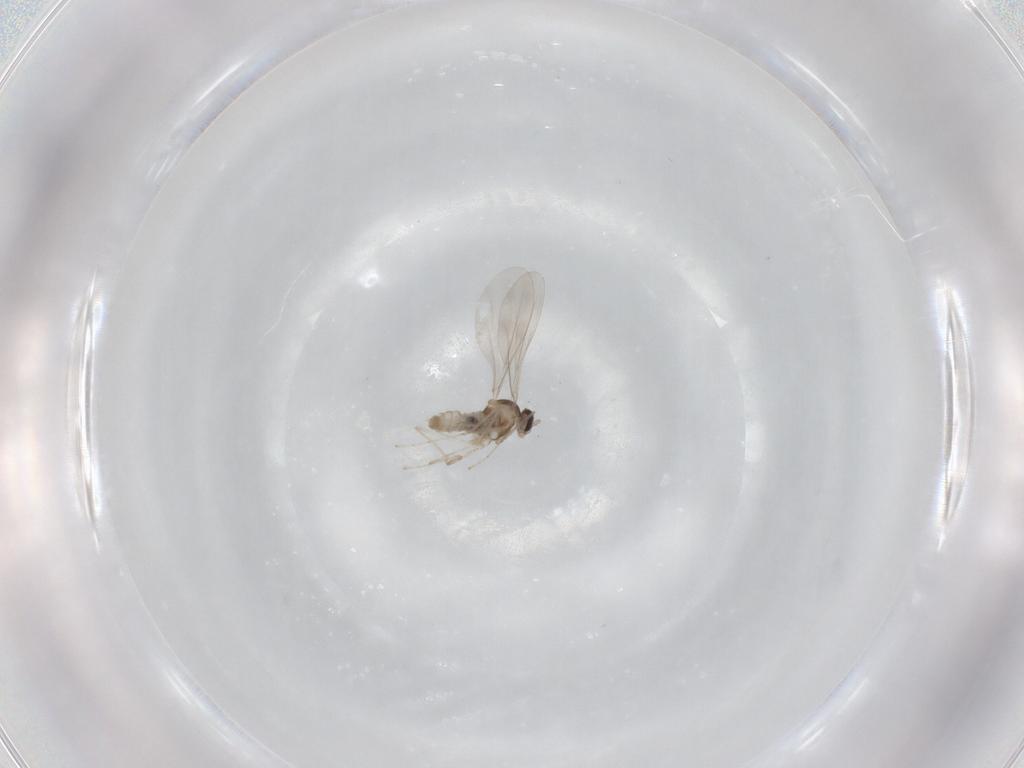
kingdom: Animalia
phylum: Arthropoda
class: Insecta
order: Diptera
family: Cecidomyiidae
